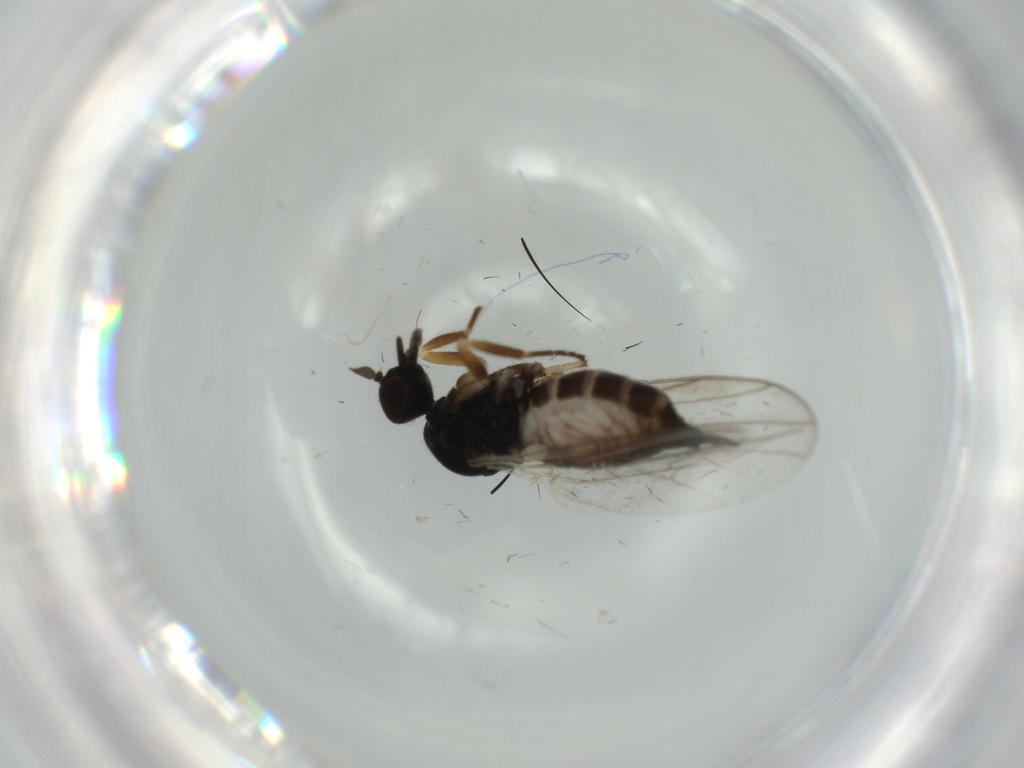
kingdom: Animalia
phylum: Arthropoda
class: Insecta
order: Diptera
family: Hybotidae
